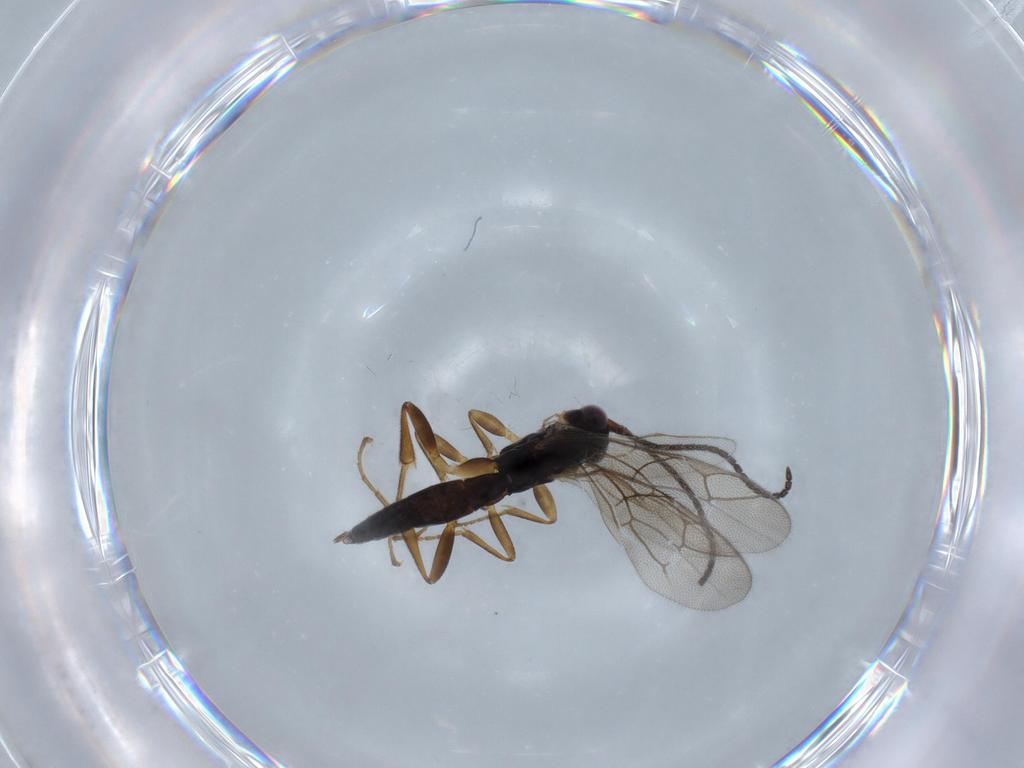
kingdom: Animalia
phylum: Arthropoda
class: Insecta
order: Hymenoptera
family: Ichneumonidae
